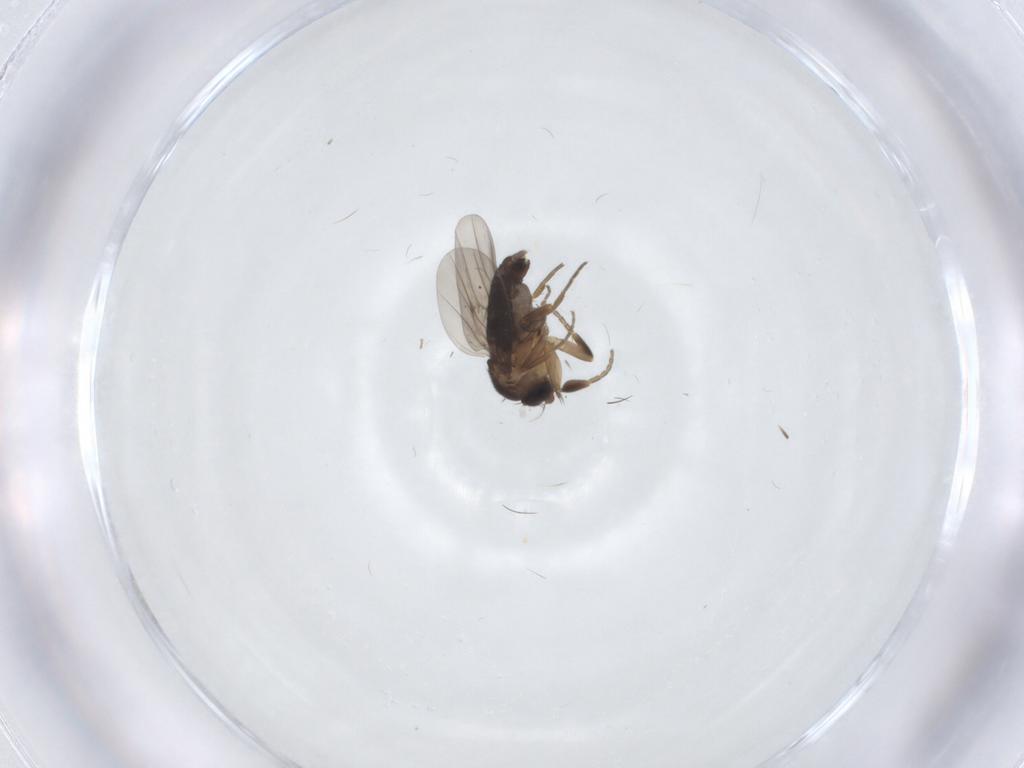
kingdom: Animalia
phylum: Arthropoda
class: Insecta
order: Diptera
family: Phoridae
